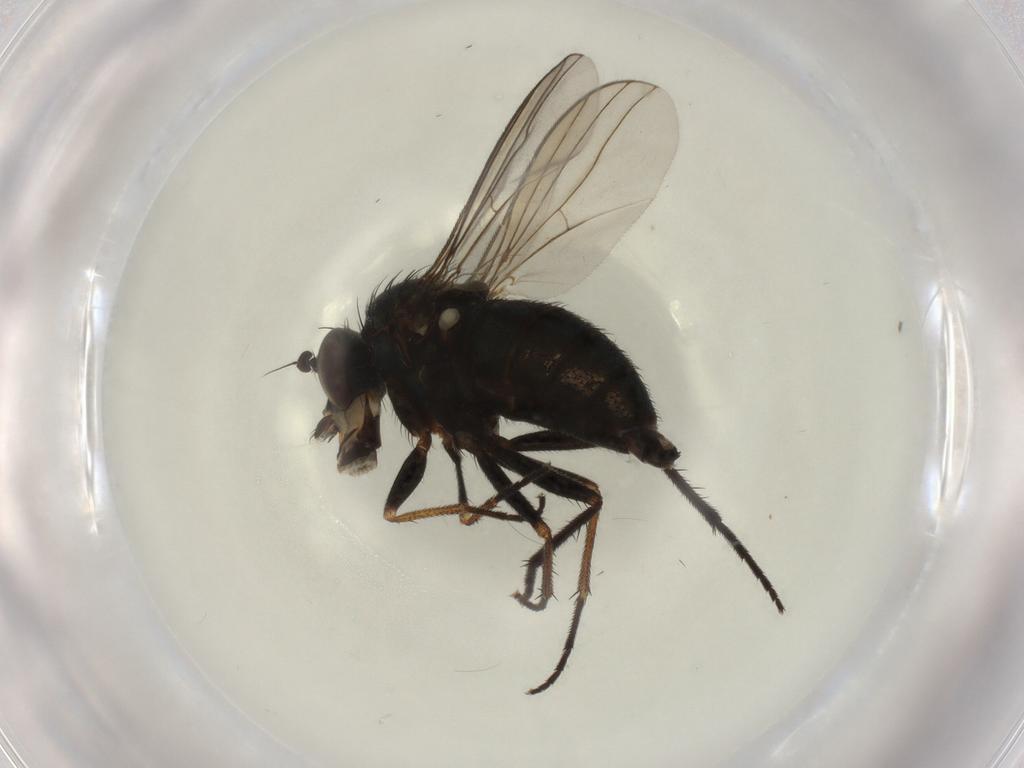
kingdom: Animalia
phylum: Arthropoda
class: Insecta
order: Diptera
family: Dolichopodidae
